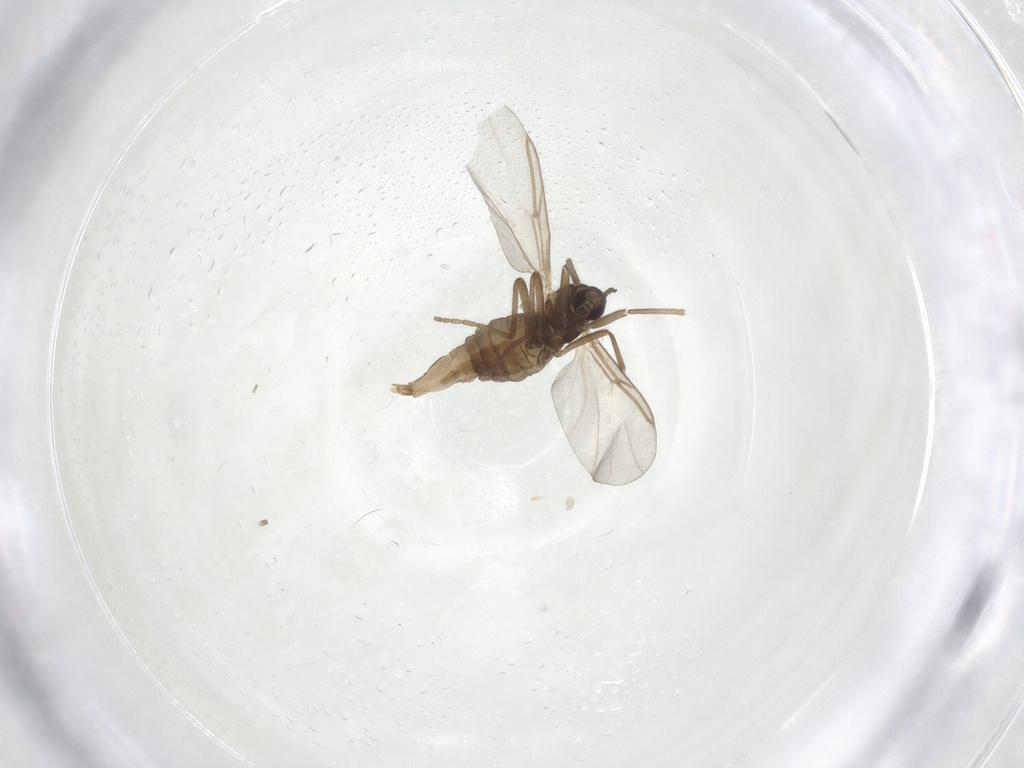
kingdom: Animalia
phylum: Arthropoda
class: Insecta
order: Diptera
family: Cecidomyiidae
